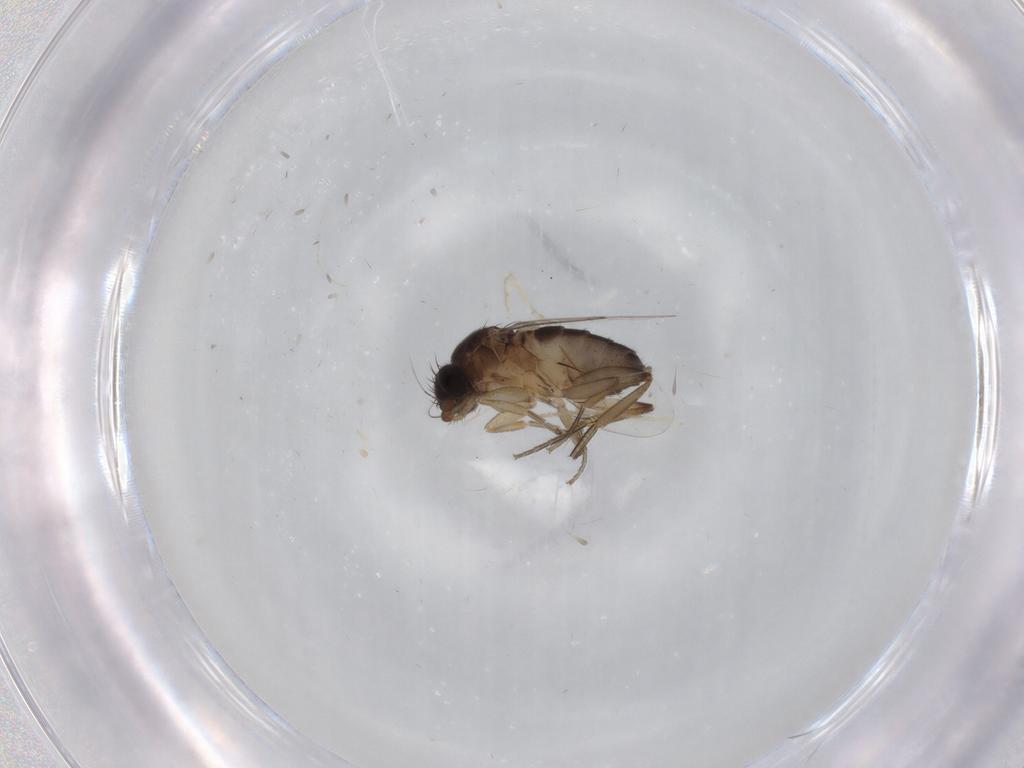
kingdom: Animalia
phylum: Arthropoda
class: Insecta
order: Diptera
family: Phoridae
